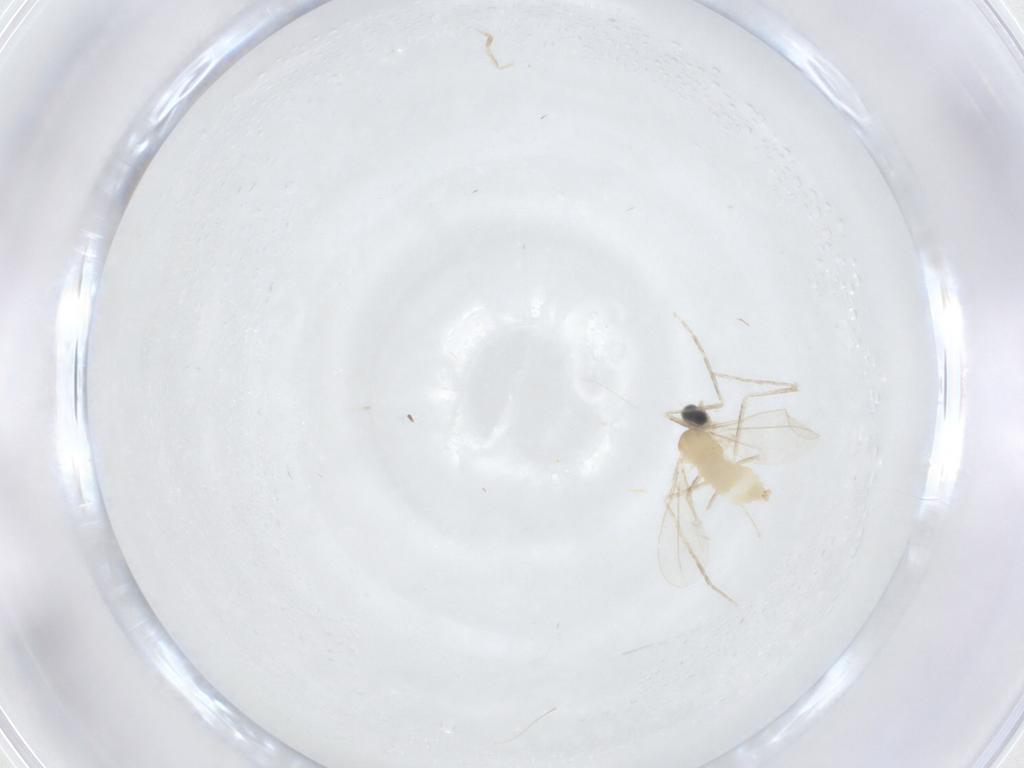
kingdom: Animalia
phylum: Arthropoda
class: Insecta
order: Diptera
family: Cecidomyiidae
